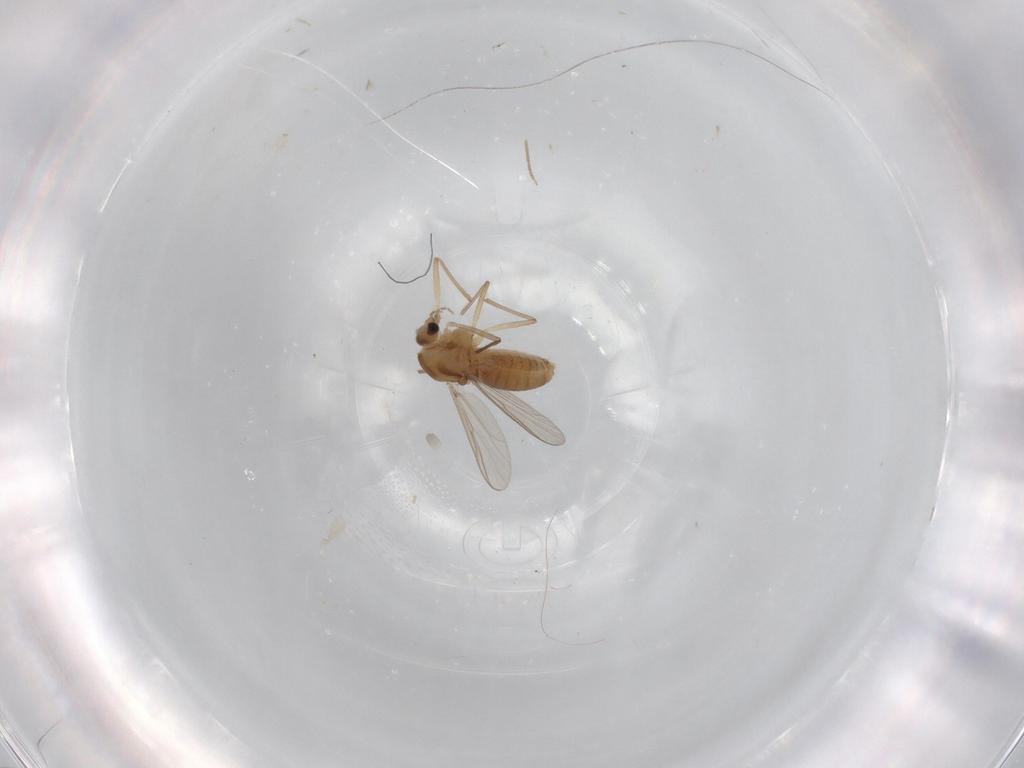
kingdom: Animalia
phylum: Arthropoda
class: Insecta
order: Diptera
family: Chironomidae
